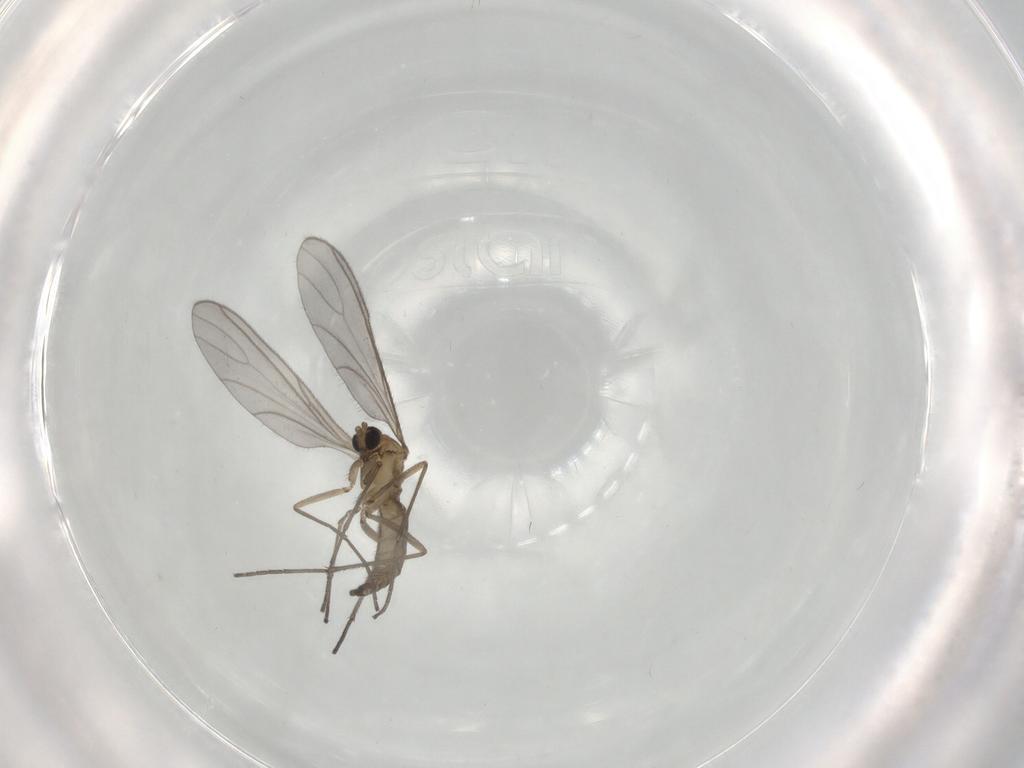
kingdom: Animalia
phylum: Arthropoda
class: Insecta
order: Diptera
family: Sciaridae
